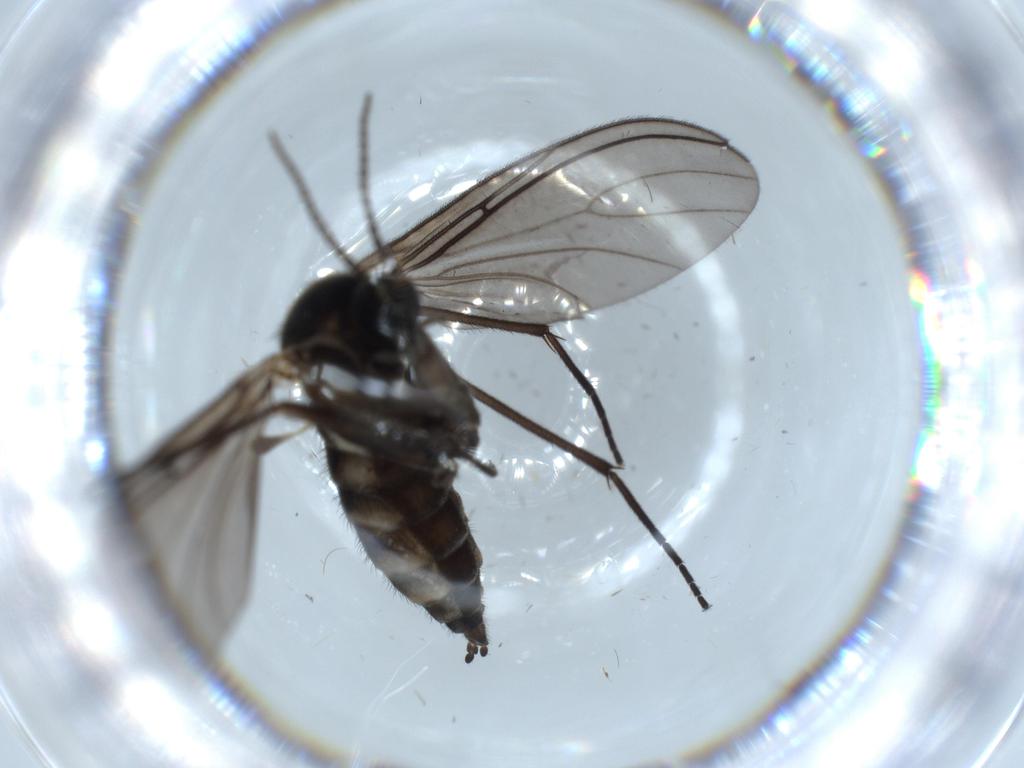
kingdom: Animalia
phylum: Arthropoda
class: Insecta
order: Diptera
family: Sciaridae
